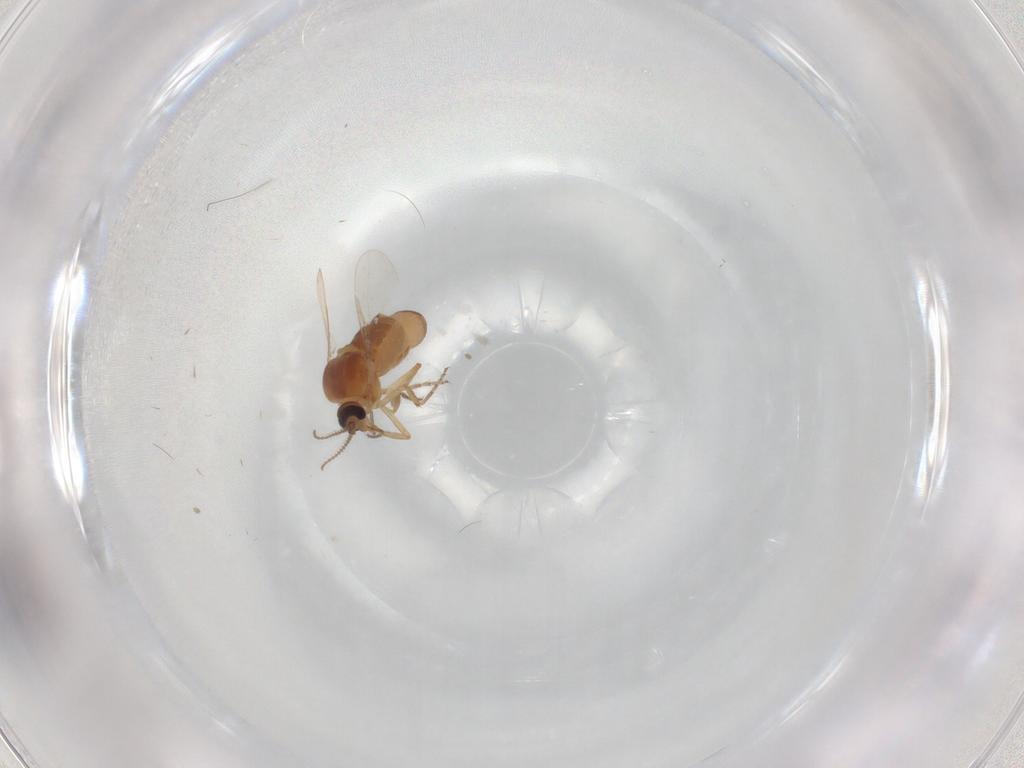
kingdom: Animalia
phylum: Arthropoda
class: Insecta
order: Diptera
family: Ceratopogonidae
